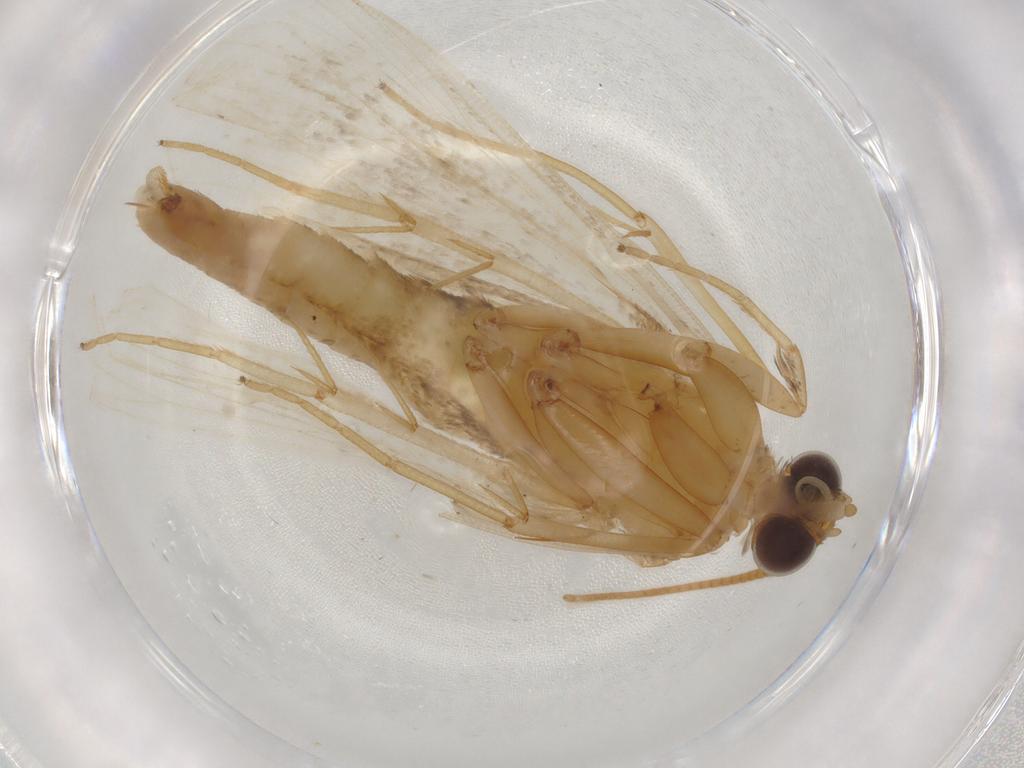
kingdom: Animalia
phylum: Arthropoda
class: Insecta
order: Lepidoptera
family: Crambidae
